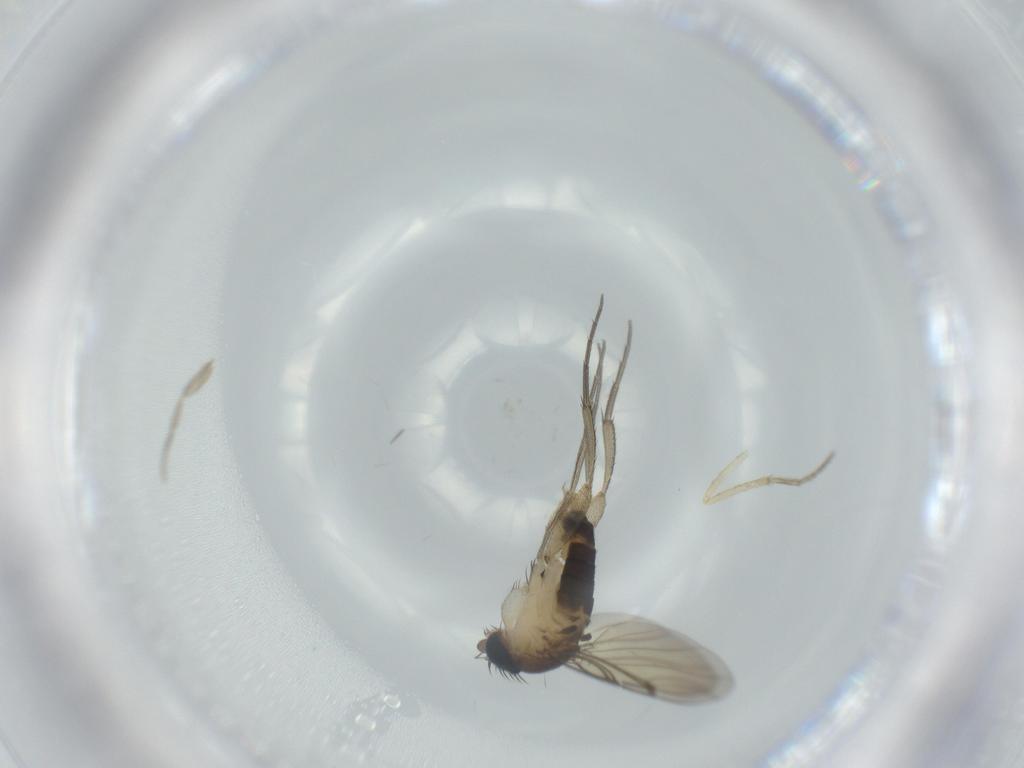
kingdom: Animalia
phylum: Arthropoda
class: Insecta
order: Diptera
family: Phoridae
